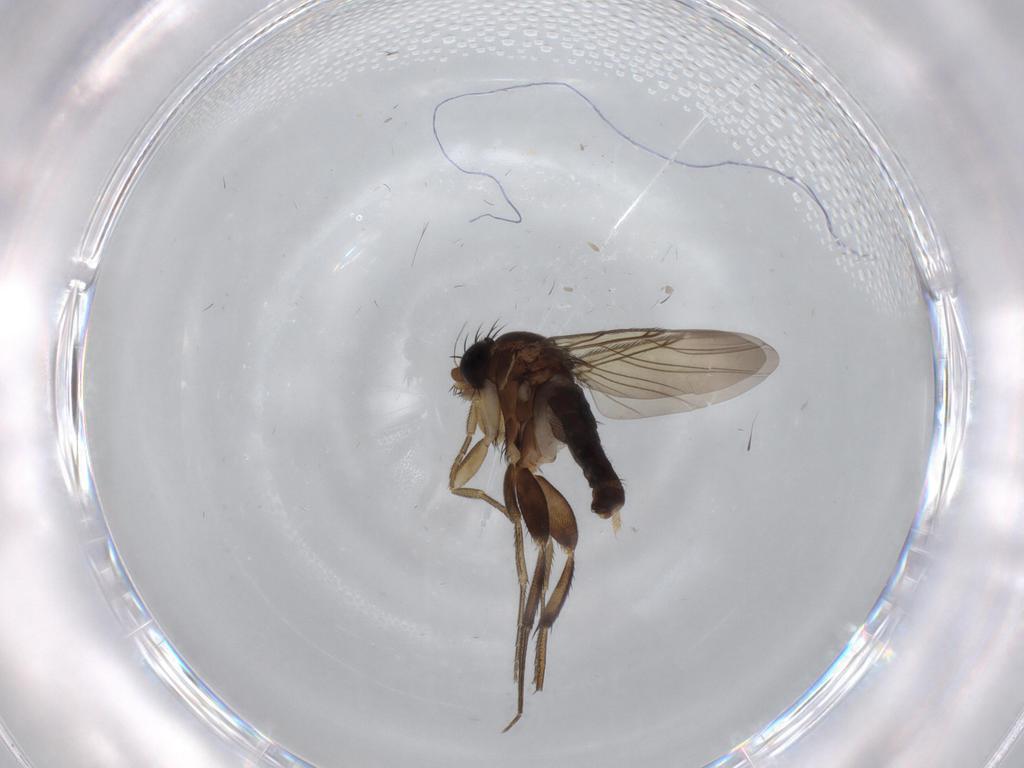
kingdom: Animalia
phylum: Arthropoda
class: Insecta
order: Diptera
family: Phoridae
